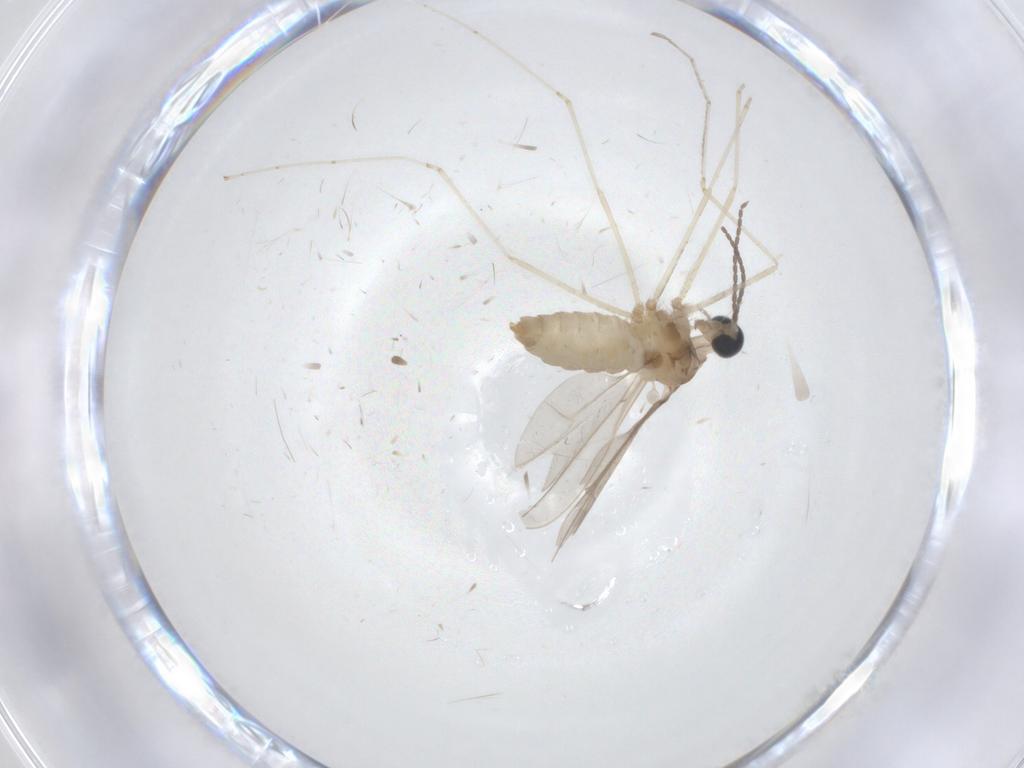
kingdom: Animalia
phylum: Arthropoda
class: Insecta
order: Diptera
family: Cecidomyiidae
